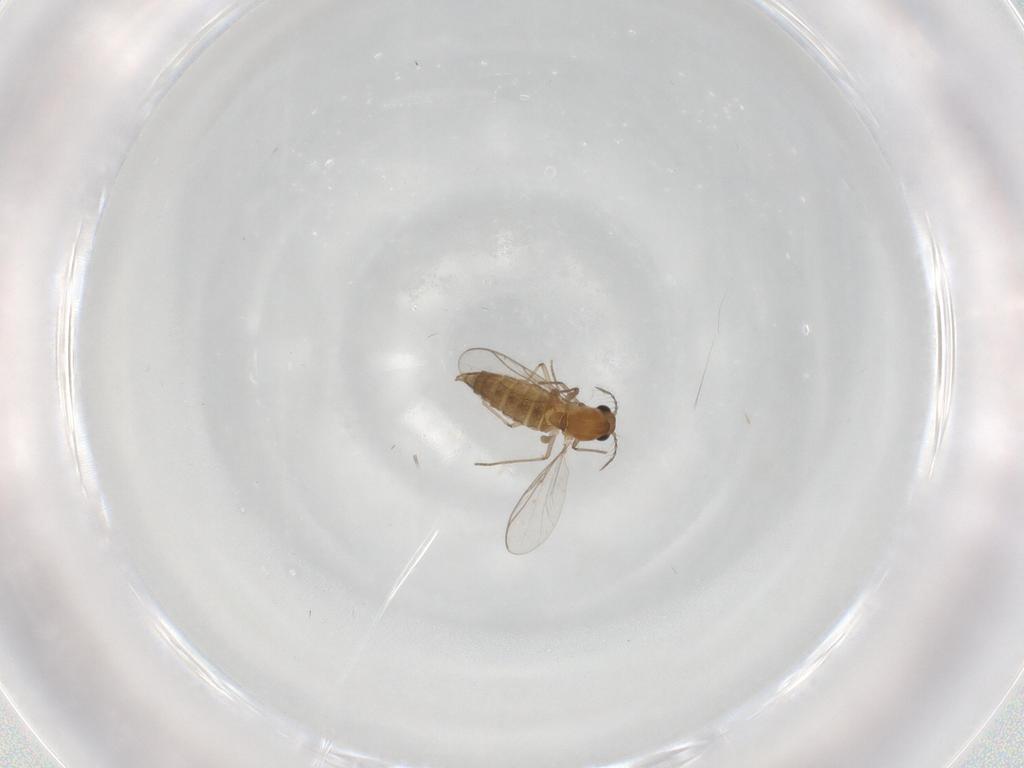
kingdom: Animalia
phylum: Arthropoda
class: Insecta
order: Diptera
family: Chironomidae
